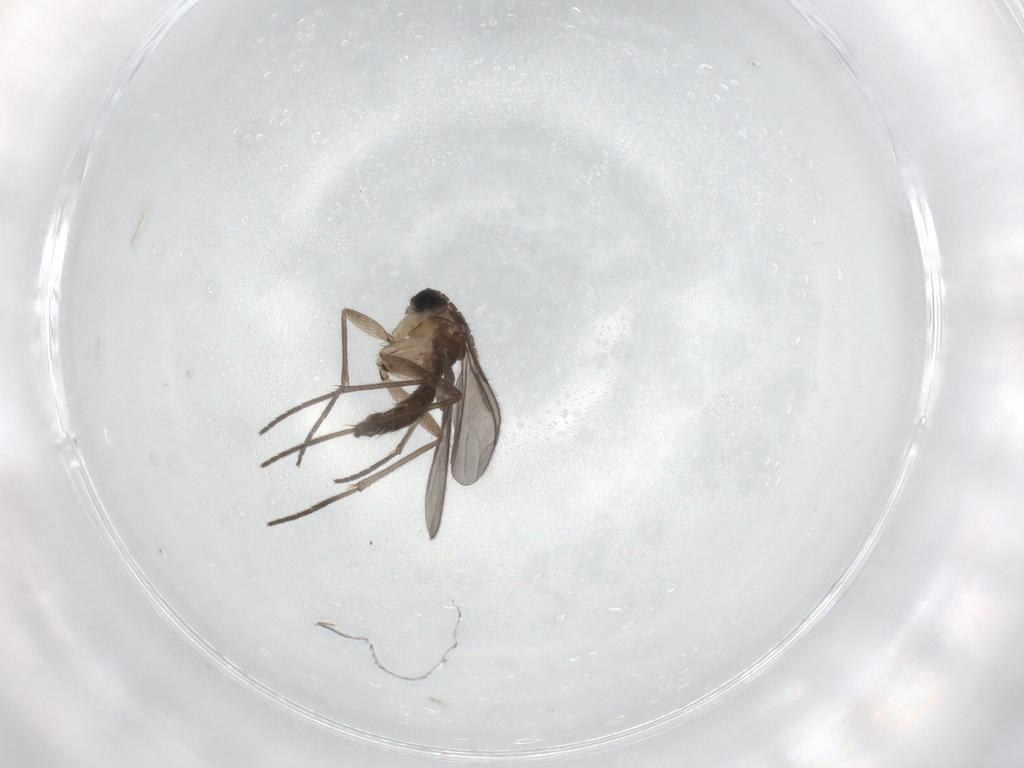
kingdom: Animalia
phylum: Arthropoda
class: Insecta
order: Diptera
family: Sciaridae
